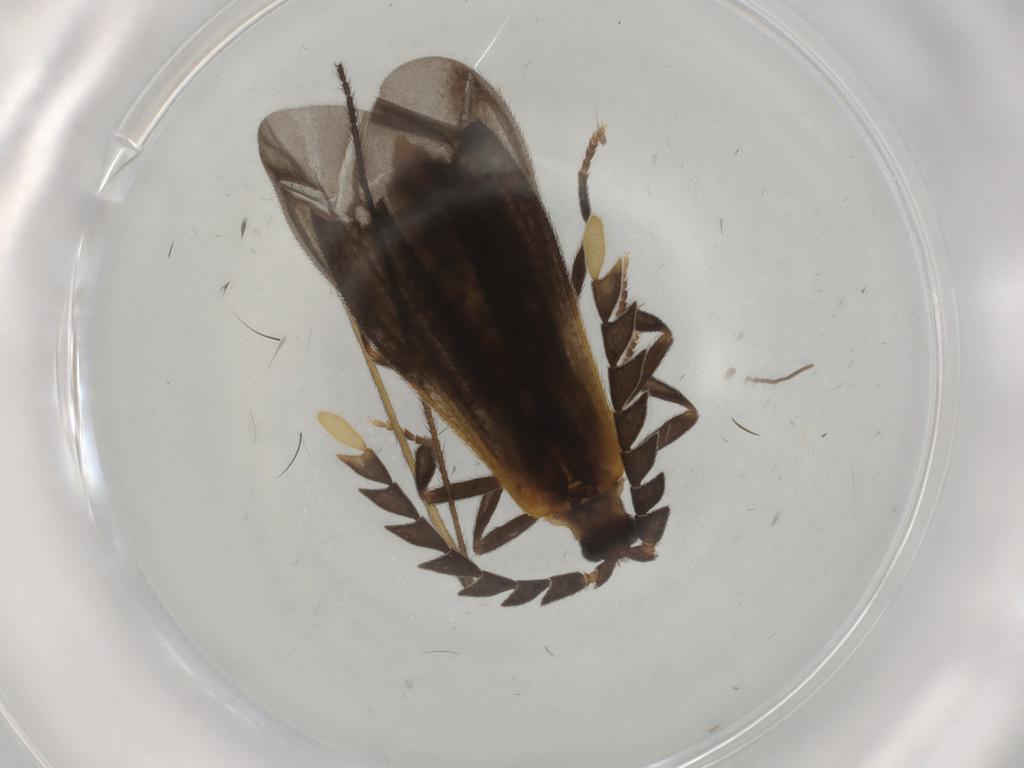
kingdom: Animalia
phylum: Arthropoda
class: Insecta
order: Coleoptera
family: Lycidae
